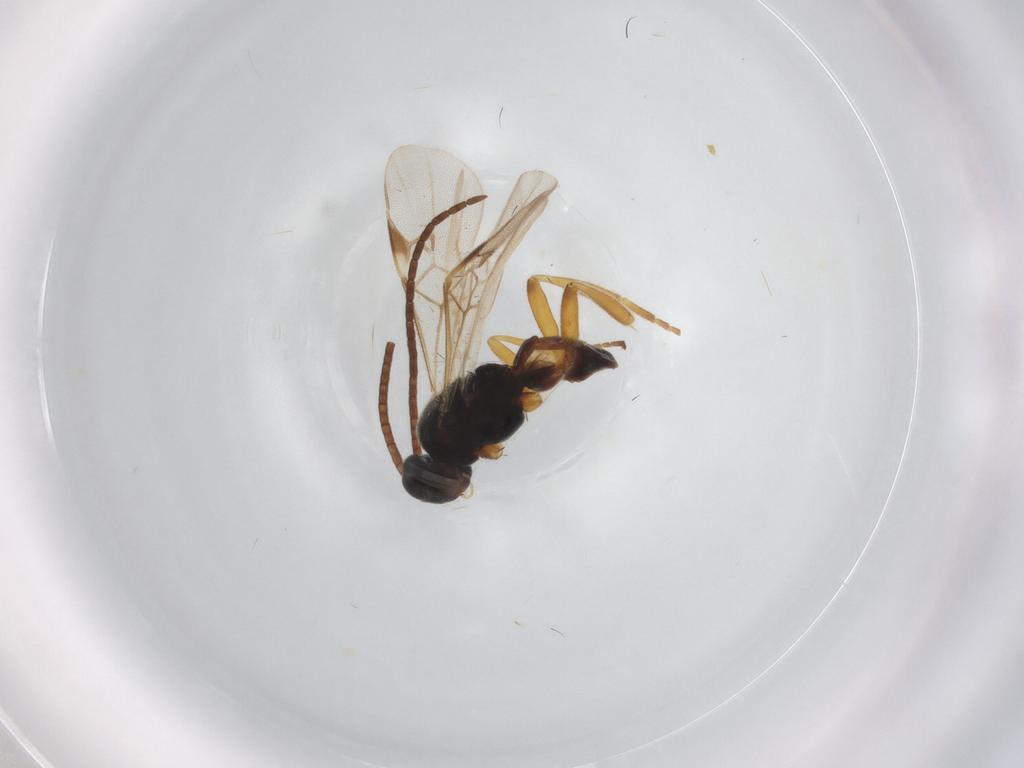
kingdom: Animalia
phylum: Arthropoda
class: Insecta
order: Hymenoptera
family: Braconidae
